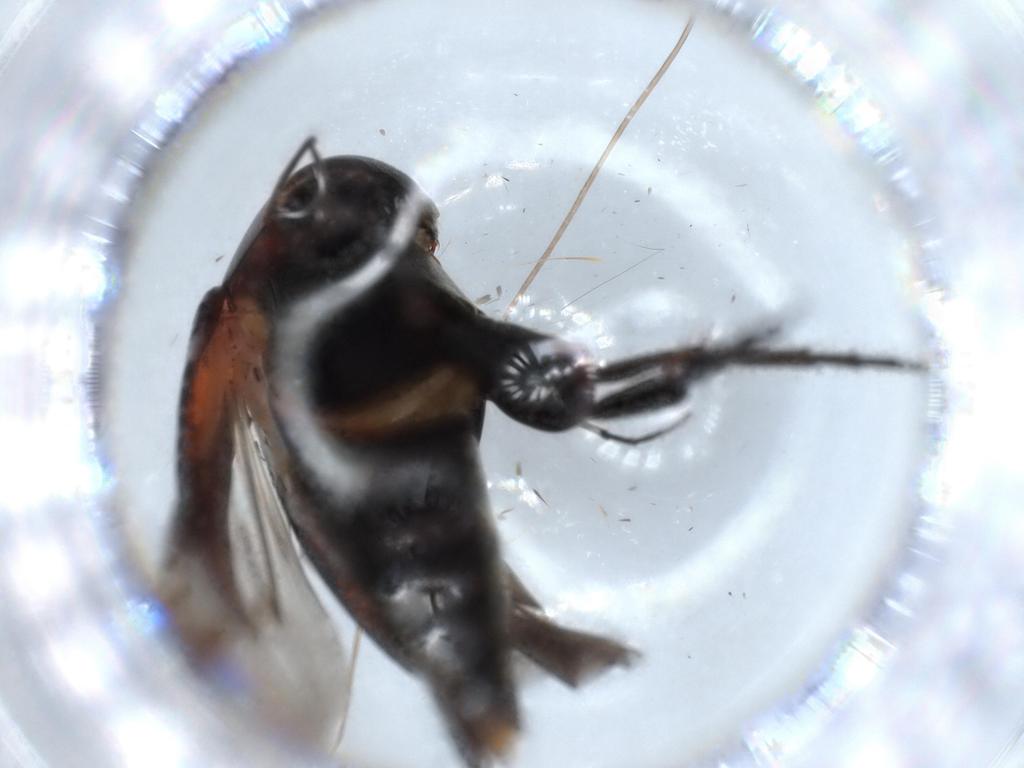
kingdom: Animalia
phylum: Arthropoda
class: Insecta
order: Coleoptera
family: Mordellidae
